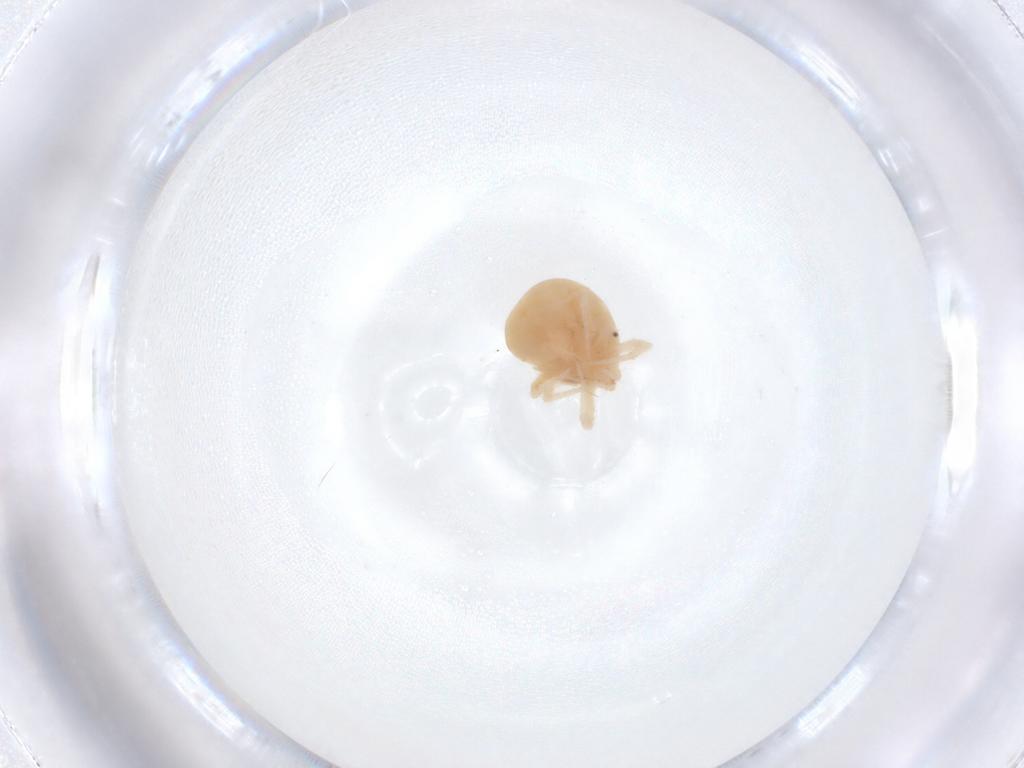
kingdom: Animalia
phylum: Arthropoda
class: Arachnida
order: Trombidiformes
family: Anystidae
